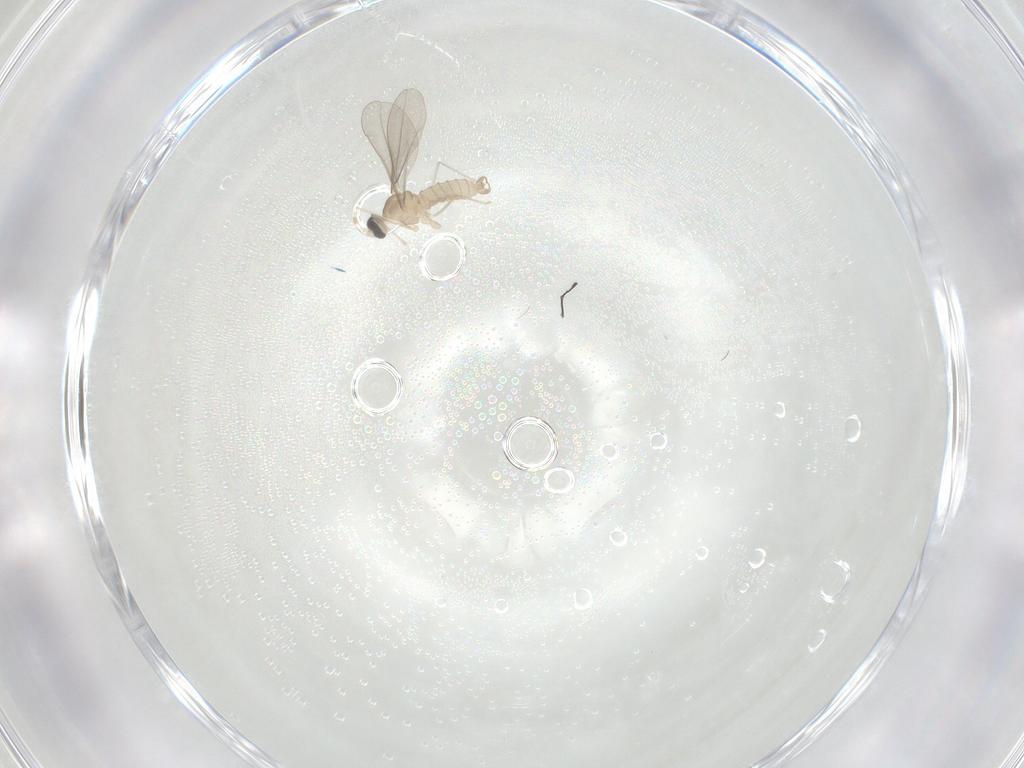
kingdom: Animalia
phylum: Arthropoda
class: Insecta
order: Diptera
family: Cecidomyiidae
